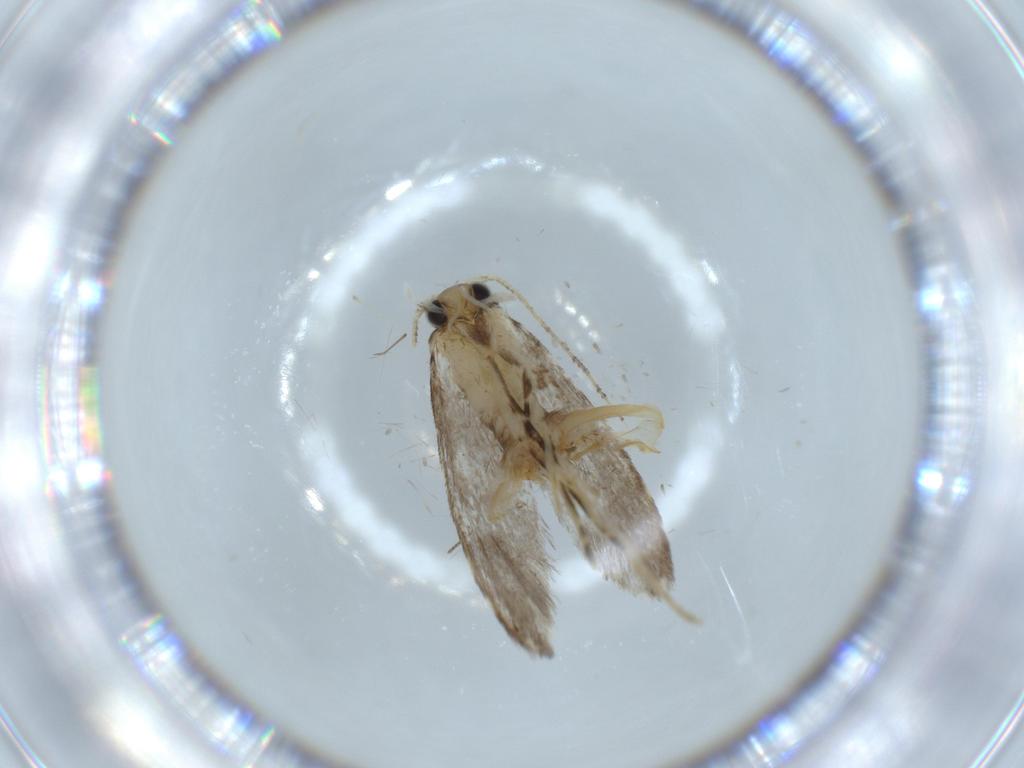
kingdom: Animalia
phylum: Arthropoda
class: Insecta
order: Lepidoptera
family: Tineidae
